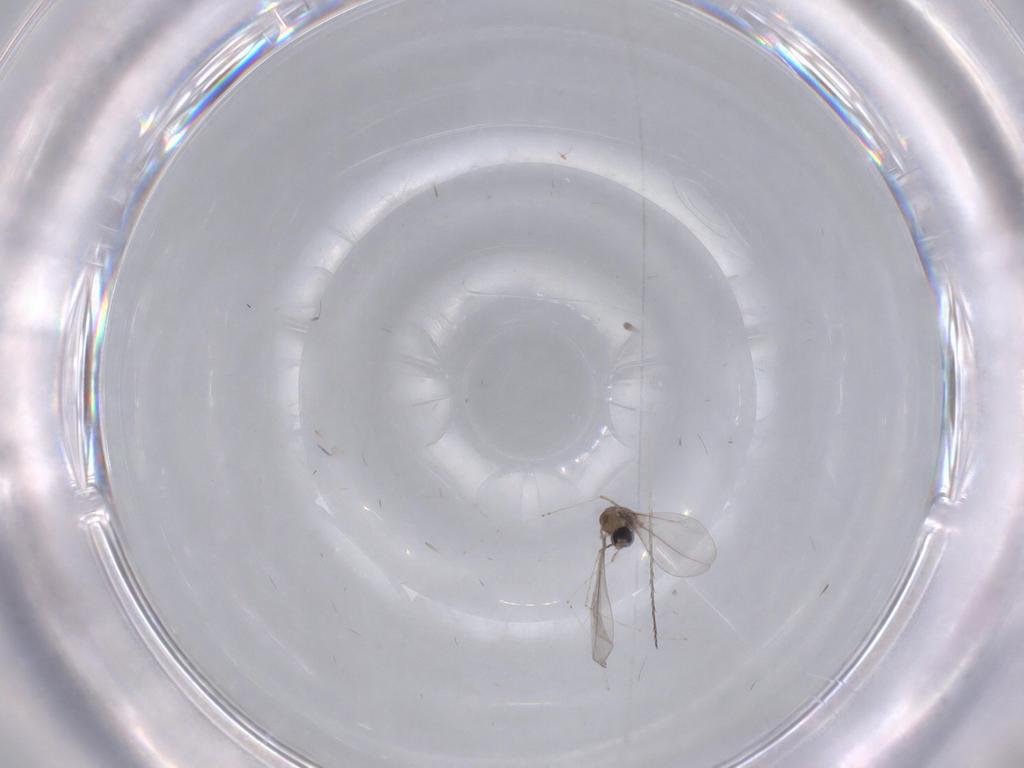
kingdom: Animalia
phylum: Arthropoda
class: Insecta
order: Diptera
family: Cecidomyiidae
